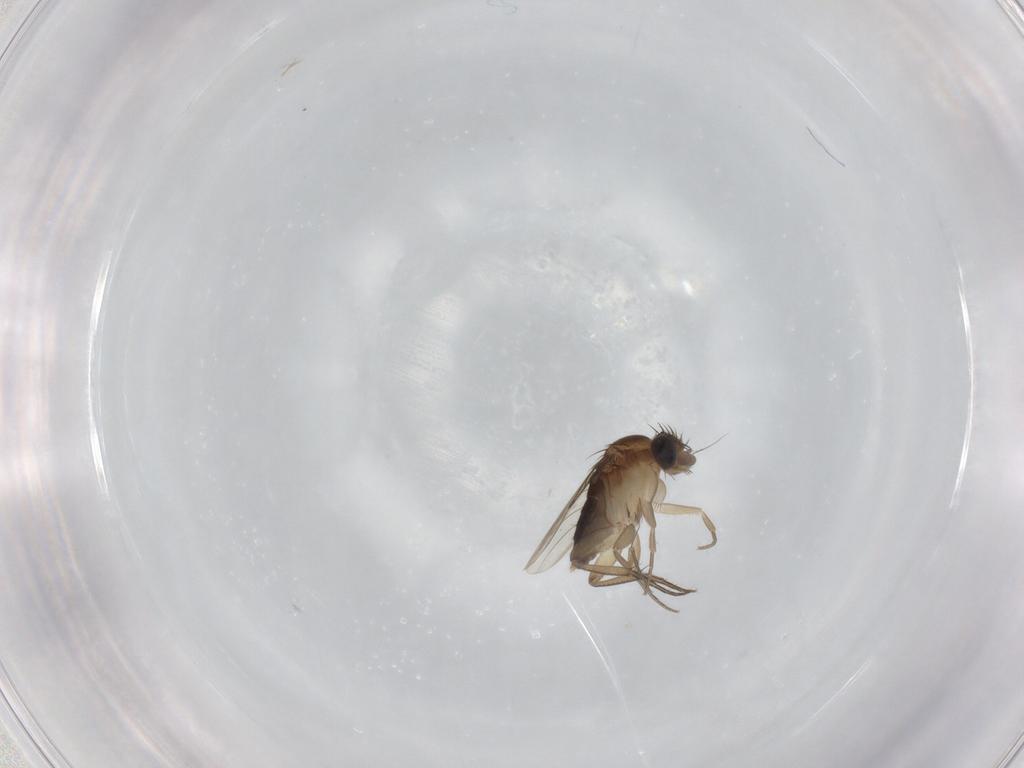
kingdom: Animalia
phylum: Arthropoda
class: Insecta
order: Diptera
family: Phoridae
